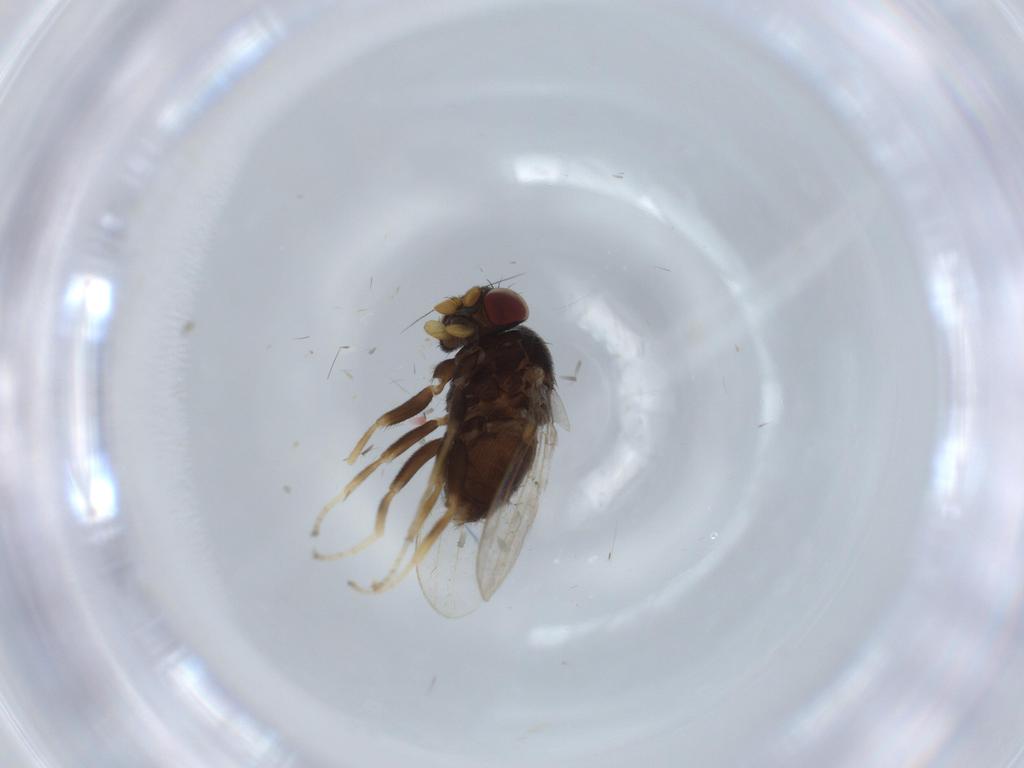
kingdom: Animalia
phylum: Arthropoda
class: Insecta
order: Diptera
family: Milichiidae
